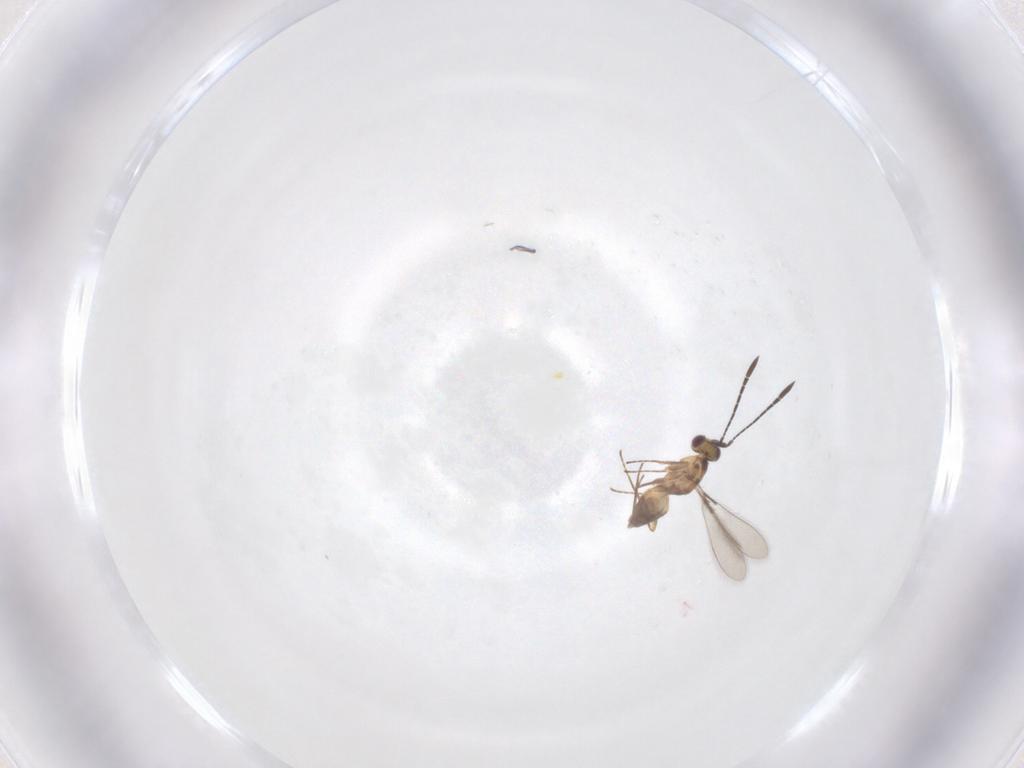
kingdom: Animalia
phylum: Arthropoda
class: Insecta
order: Hymenoptera
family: Mymaridae
